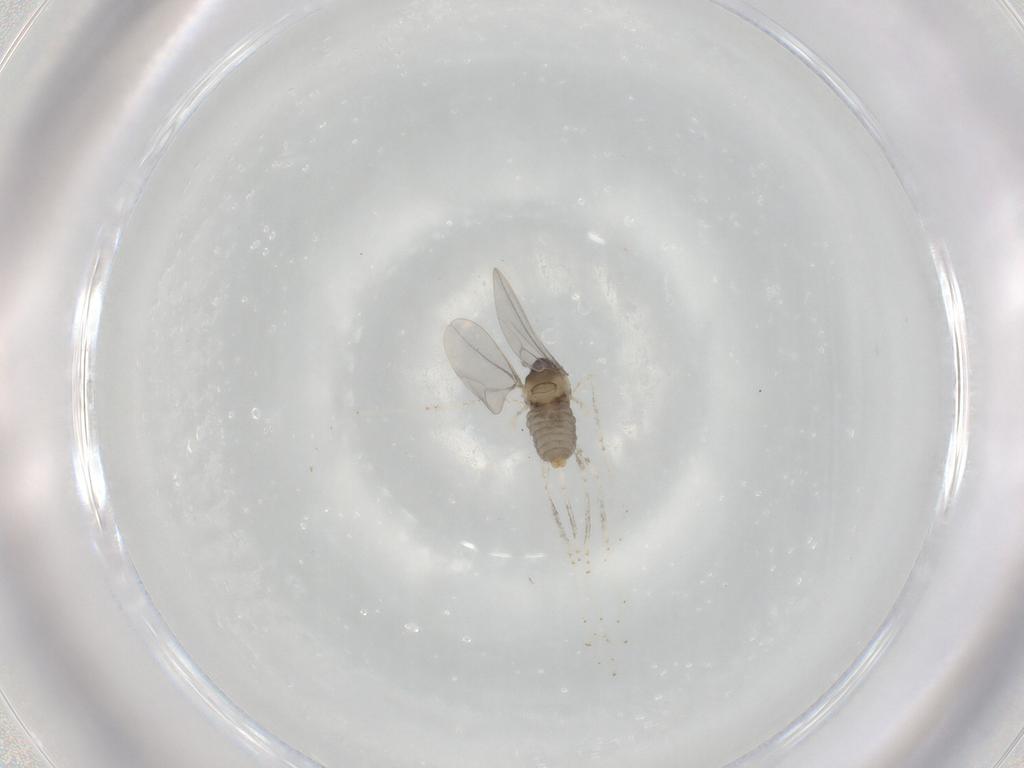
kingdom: Animalia
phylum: Arthropoda
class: Insecta
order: Diptera
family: Cecidomyiidae
